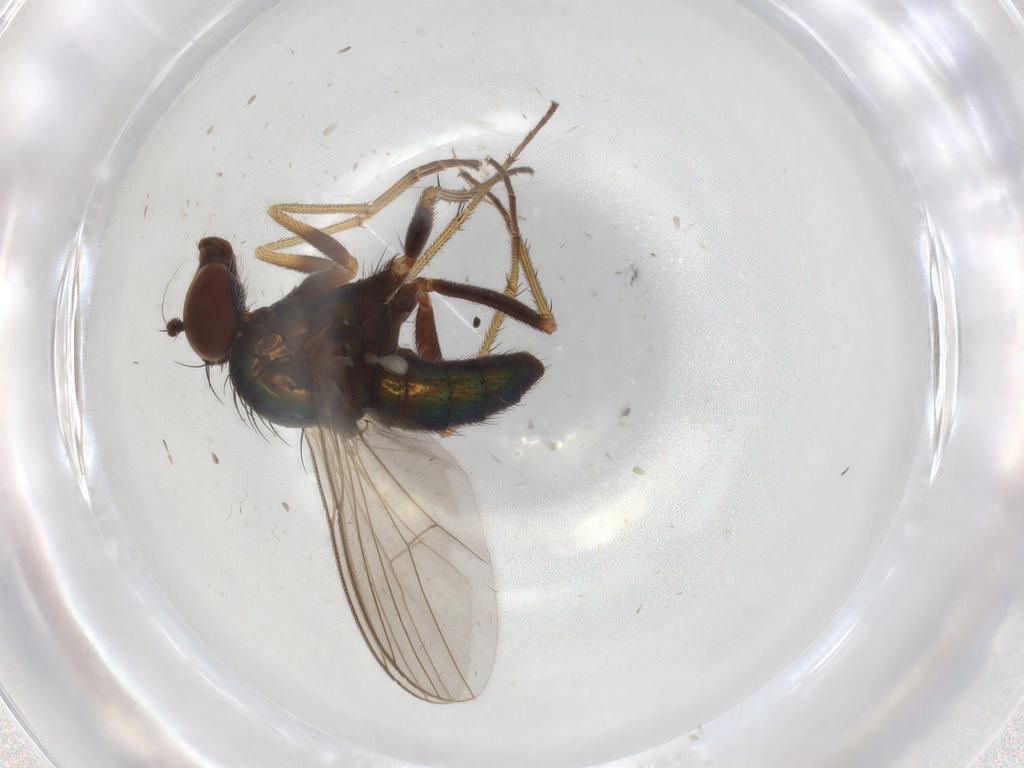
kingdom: Animalia
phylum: Arthropoda
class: Insecta
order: Diptera
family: Dolichopodidae
